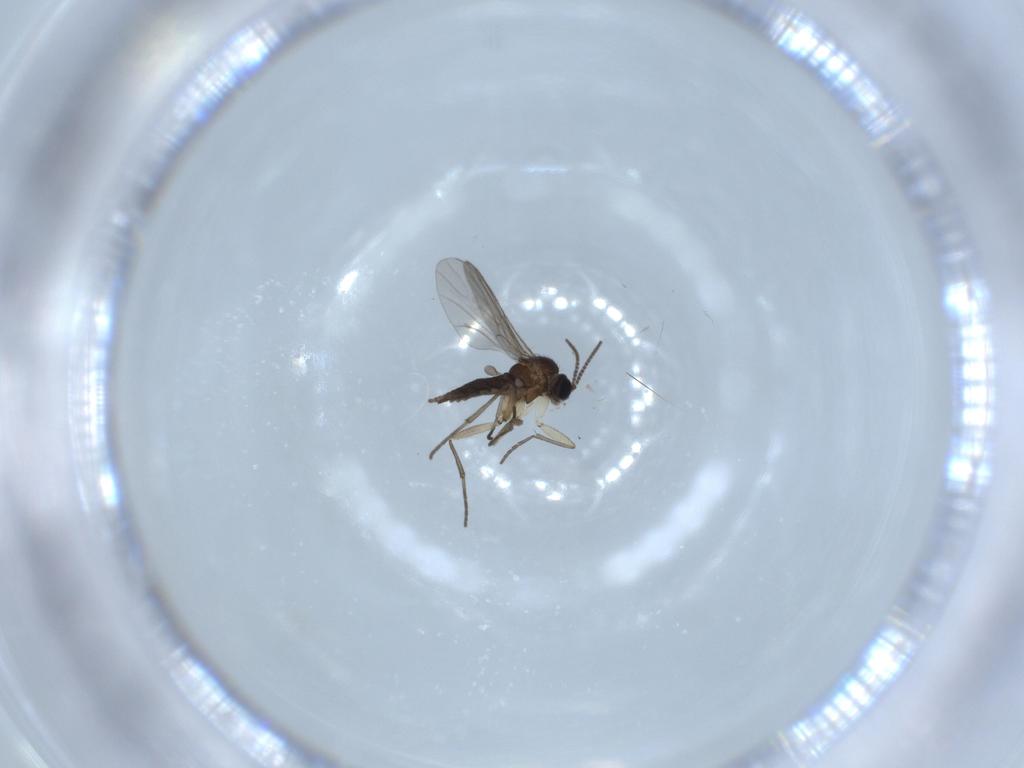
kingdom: Animalia
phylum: Arthropoda
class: Insecta
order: Diptera
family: Sciaridae
